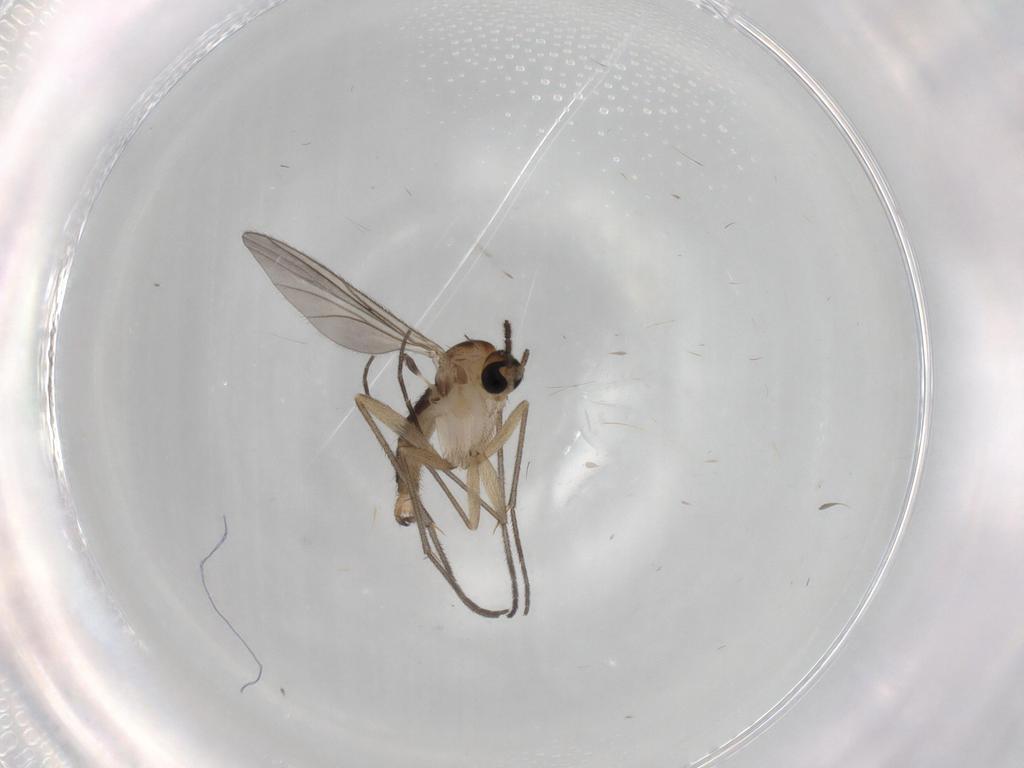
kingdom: Animalia
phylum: Arthropoda
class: Insecta
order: Diptera
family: Sciaridae
